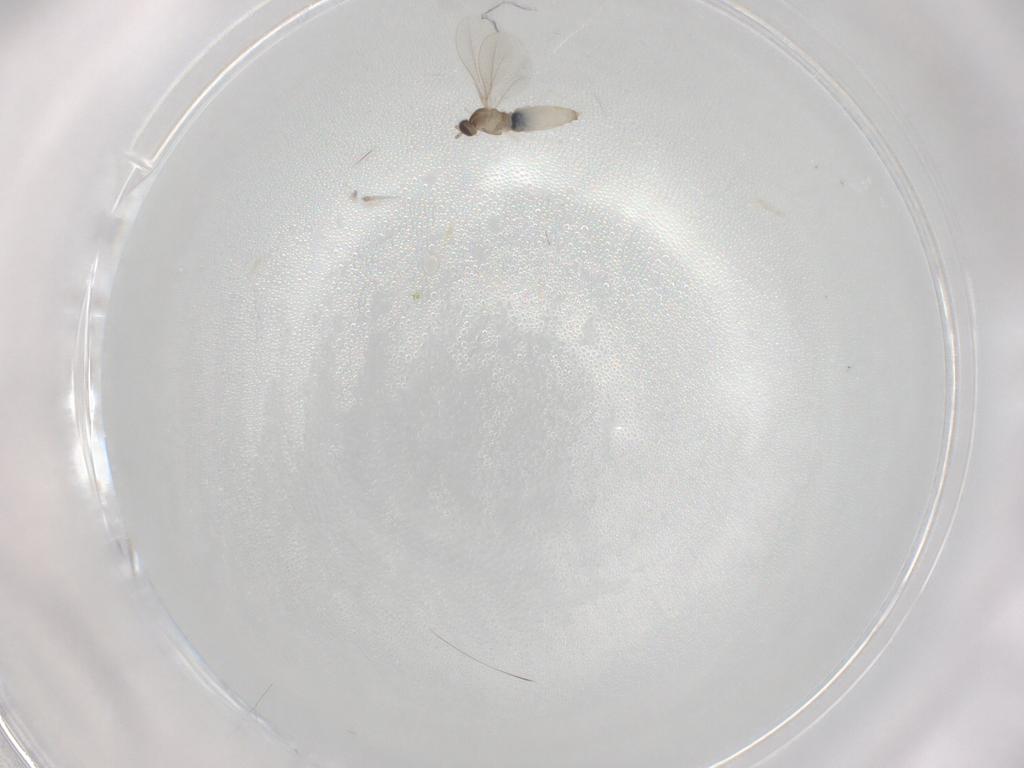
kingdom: Animalia
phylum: Arthropoda
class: Insecta
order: Diptera
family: Cecidomyiidae
